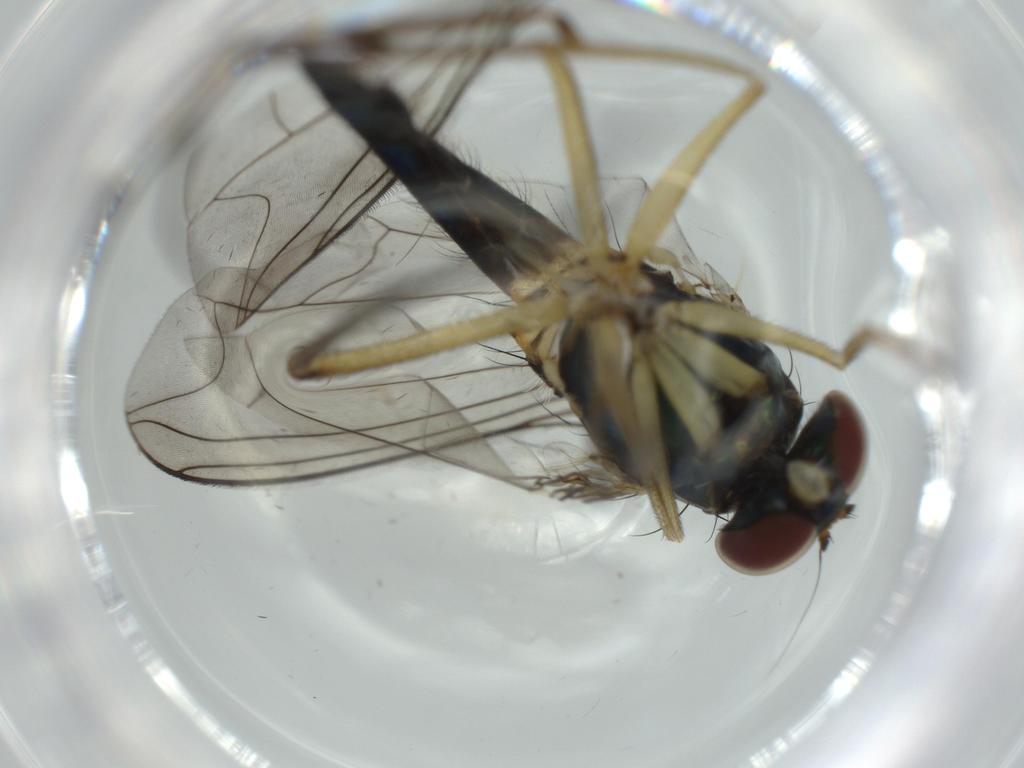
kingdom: Animalia
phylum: Arthropoda
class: Insecta
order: Diptera
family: Dolichopodidae
